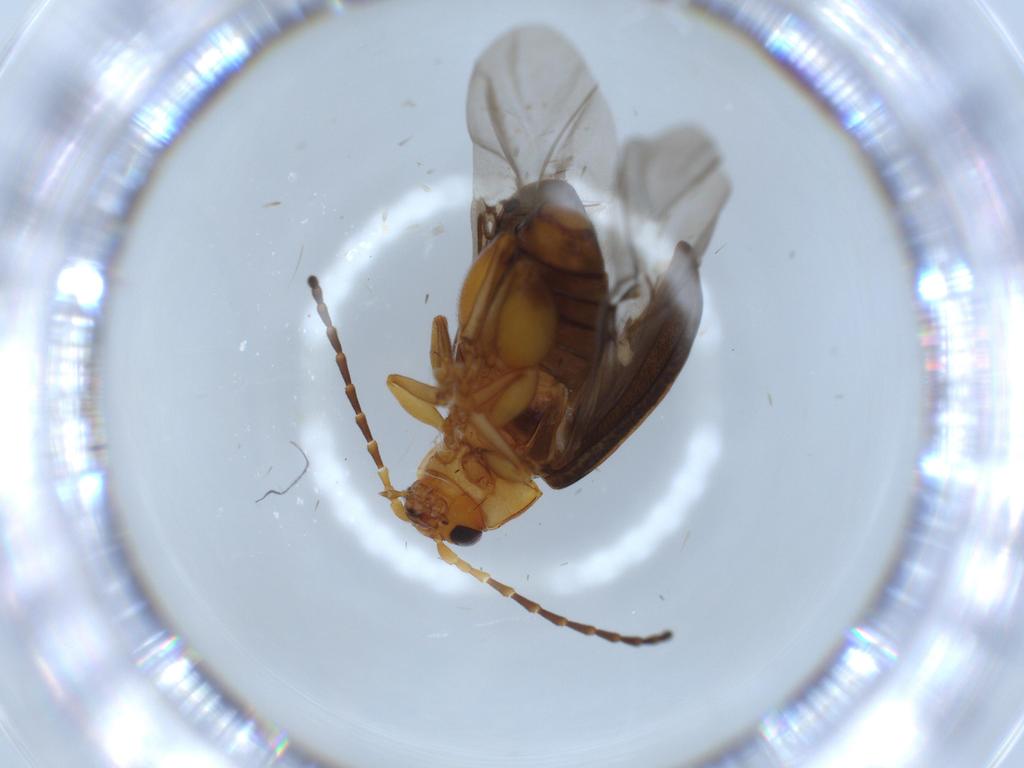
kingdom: Animalia
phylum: Arthropoda
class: Insecta
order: Coleoptera
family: Chrysomelidae
